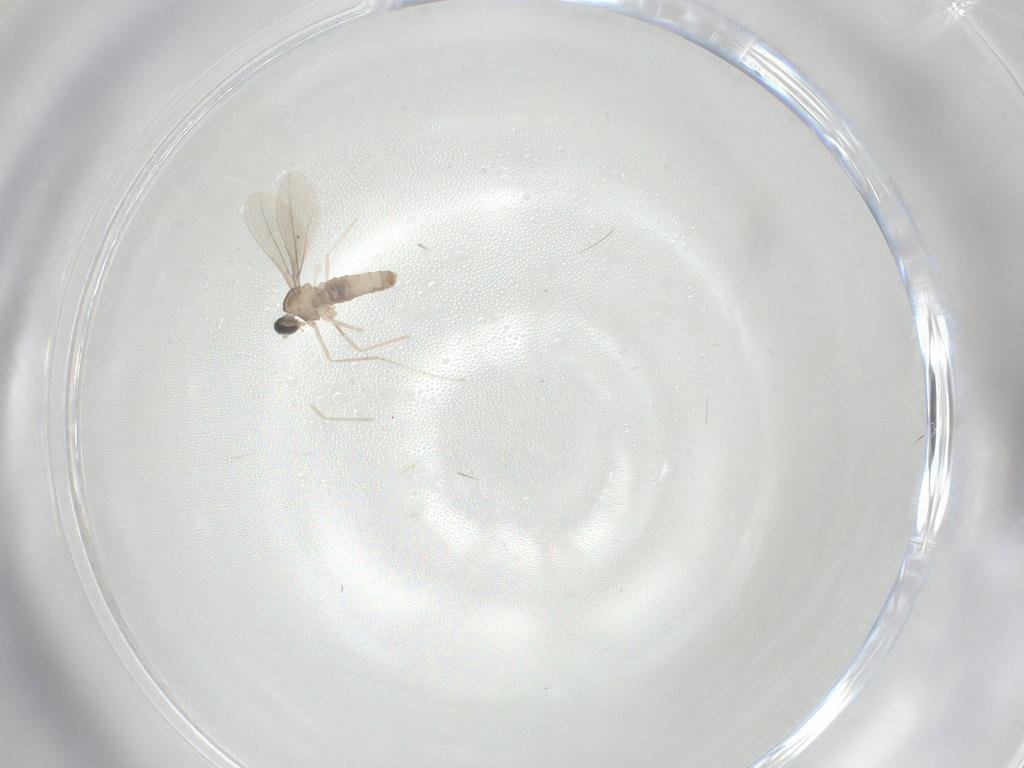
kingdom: Animalia
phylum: Arthropoda
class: Insecta
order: Diptera
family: Cecidomyiidae
